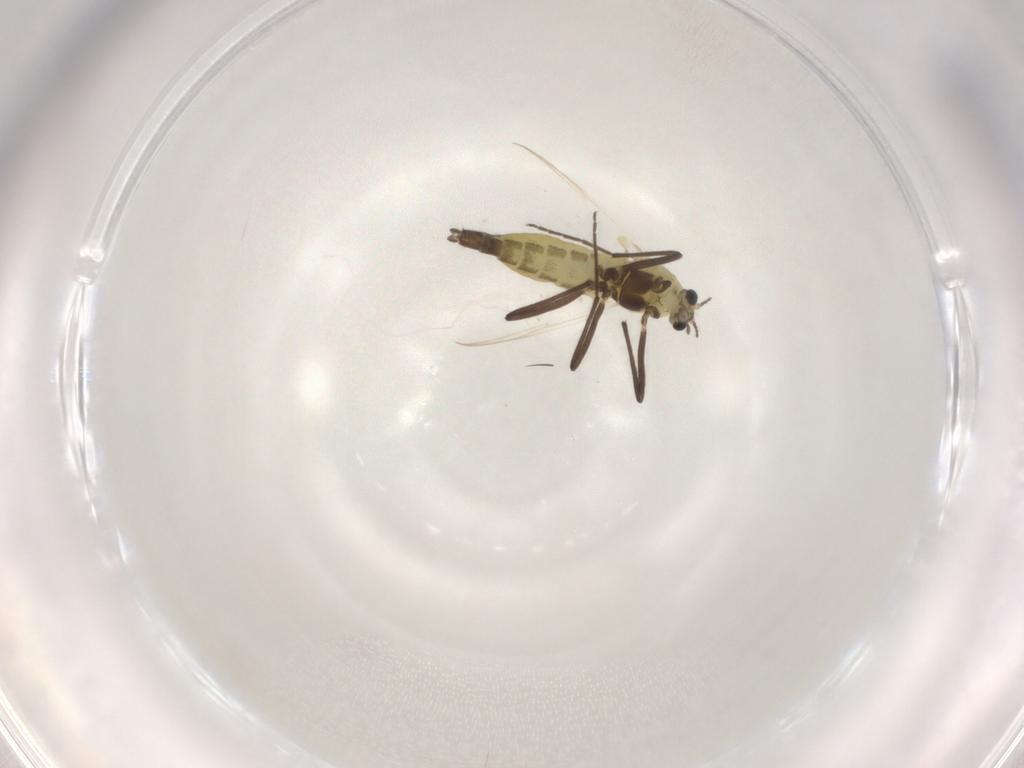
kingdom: Animalia
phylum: Arthropoda
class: Insecta
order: Diptera
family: Chironomidae
